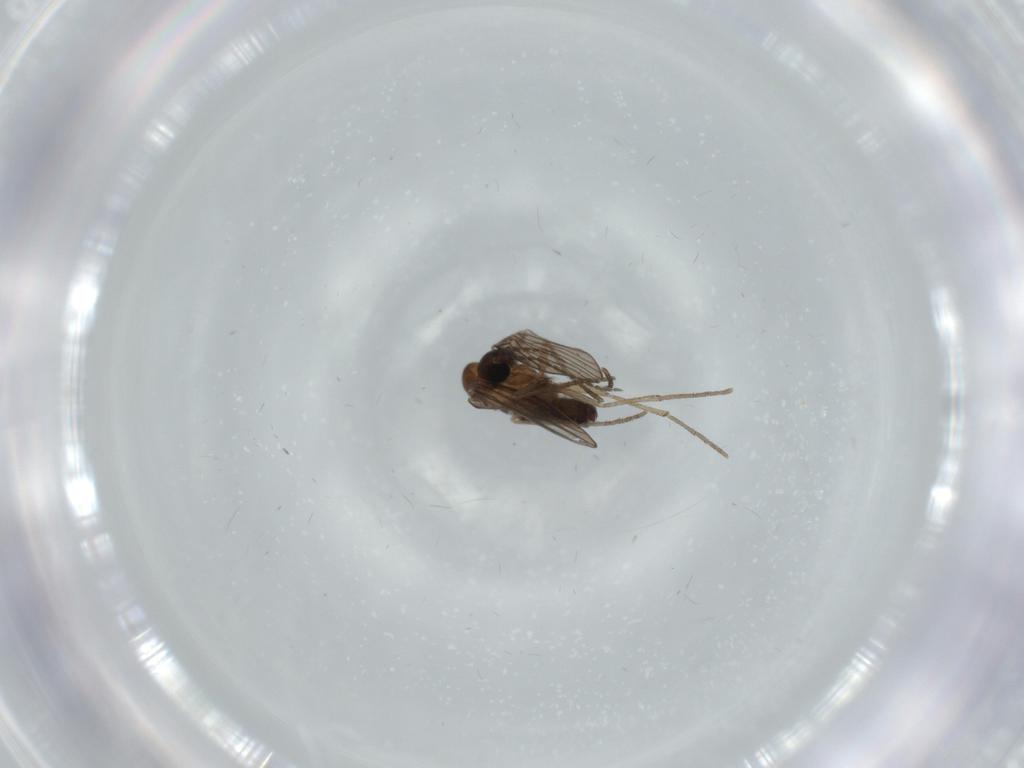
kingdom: Animalia
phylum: Arthropoda
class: Insecta
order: Diptera
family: Psychodidae
